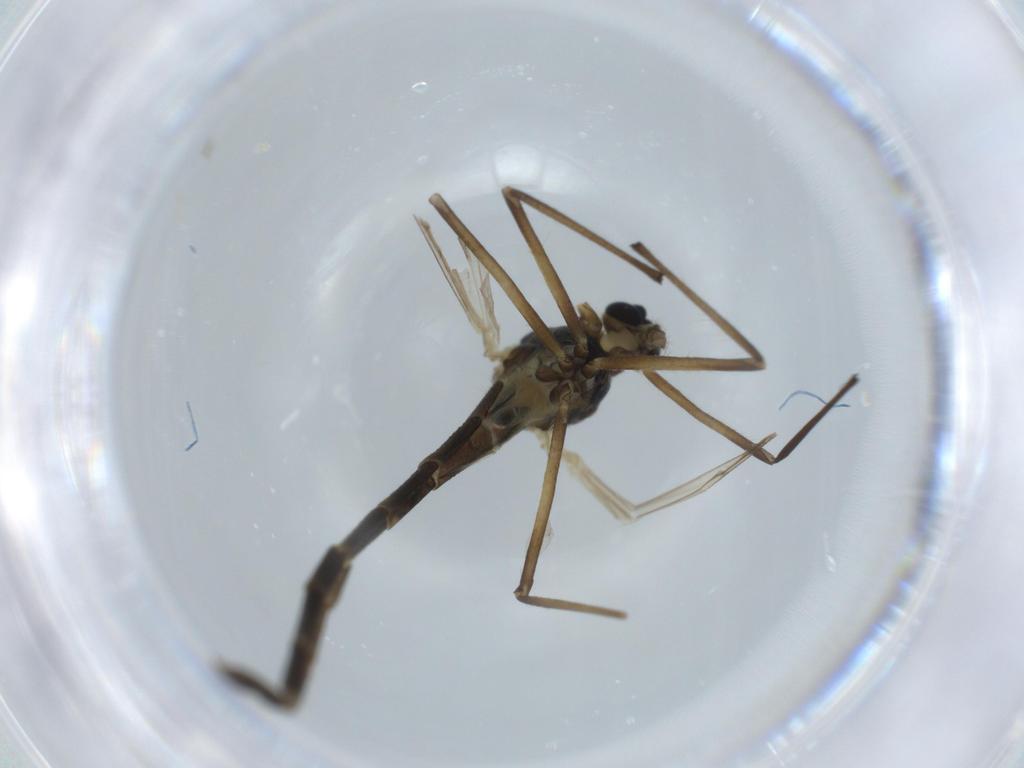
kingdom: Animalia
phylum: Arthropoda
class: Insecta
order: Diptera
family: Chironomidae
